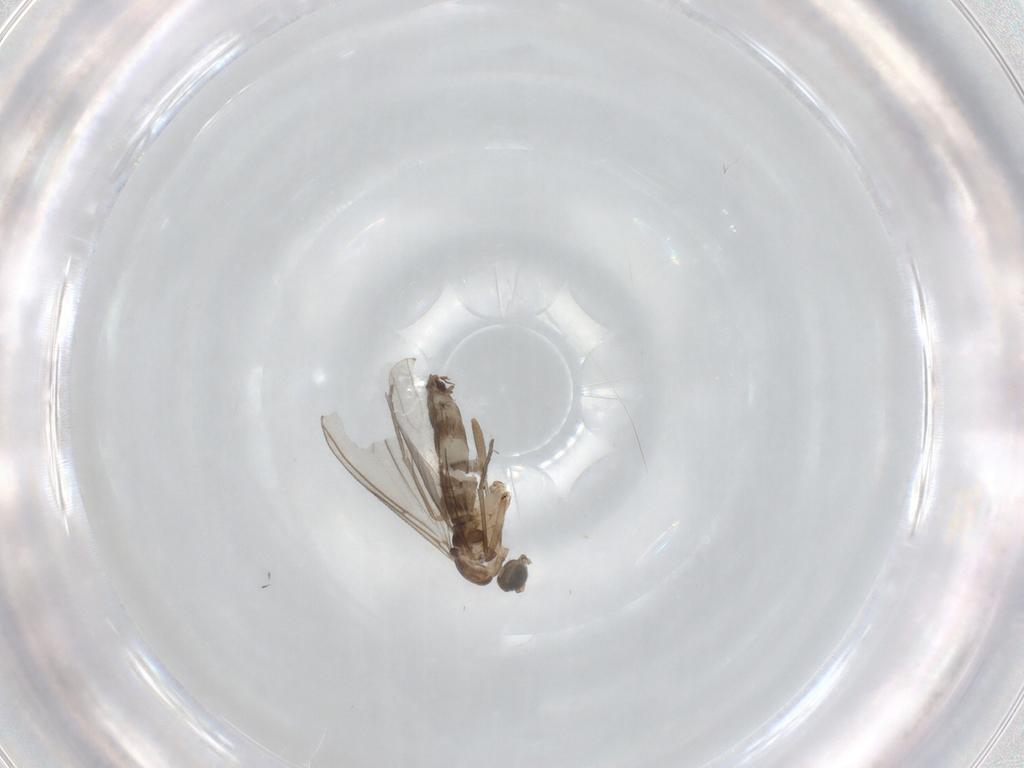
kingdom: Animalia
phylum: Arthropoda
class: Insecta
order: Diptera
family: Sciaridae
